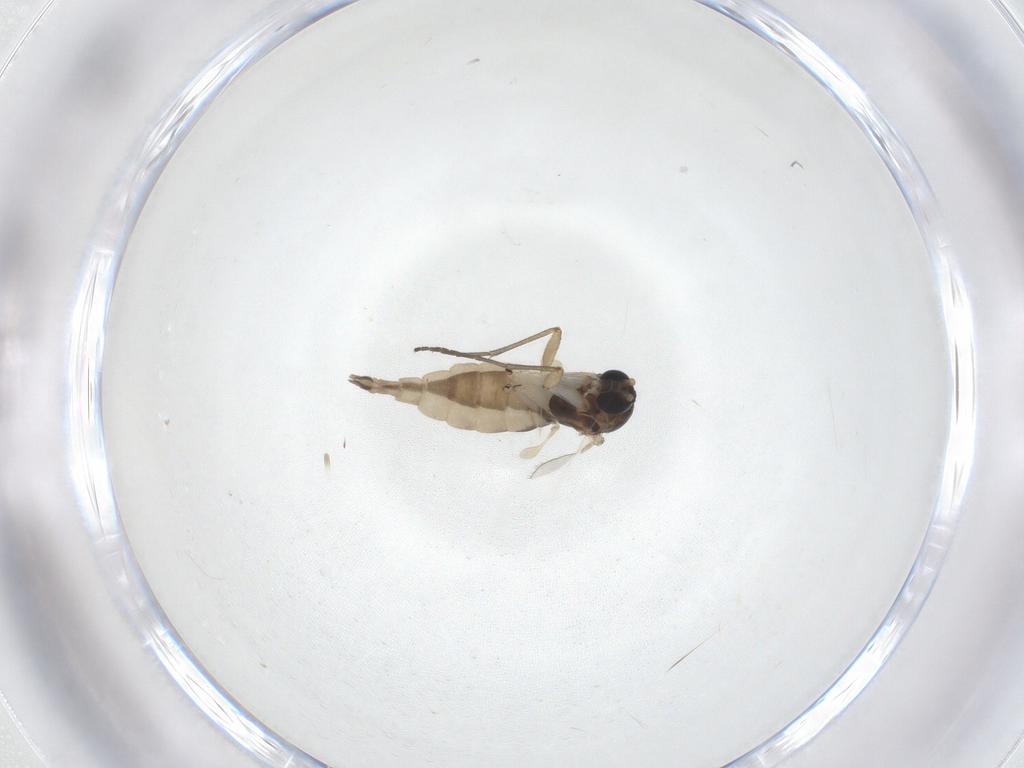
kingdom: Animalia
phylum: Arthropoda
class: Insecta
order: Diptera
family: Sciaridae
